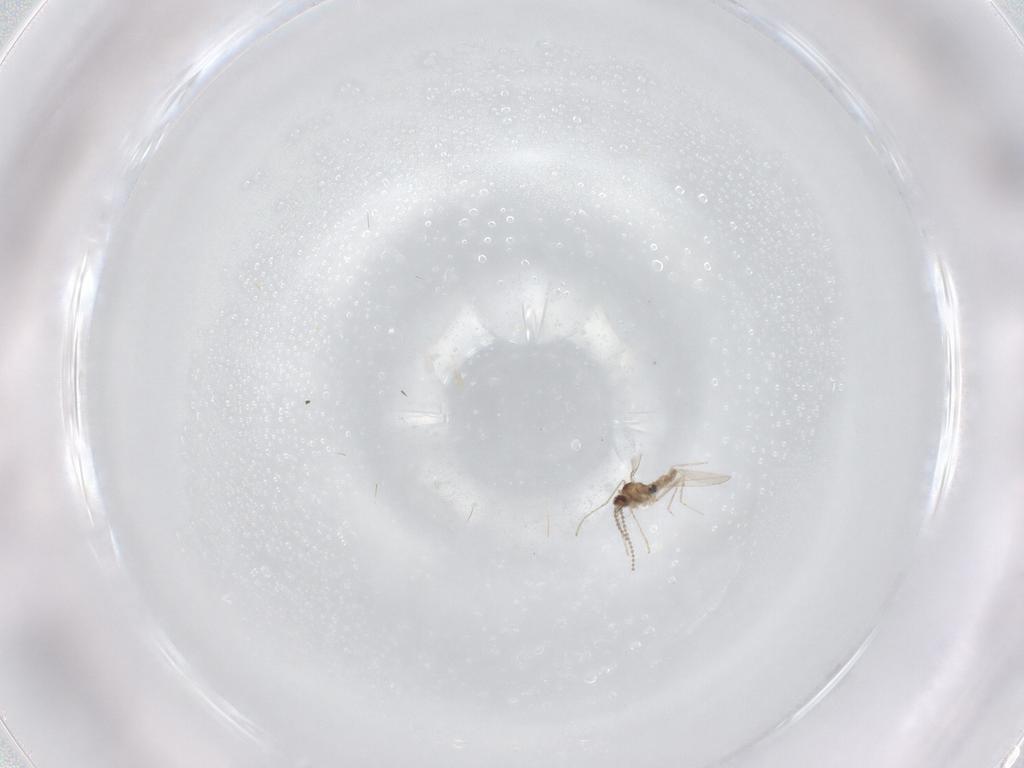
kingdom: Animalia
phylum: Arthropoda
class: Insecta
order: Diptera
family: Cecidomyiidae
